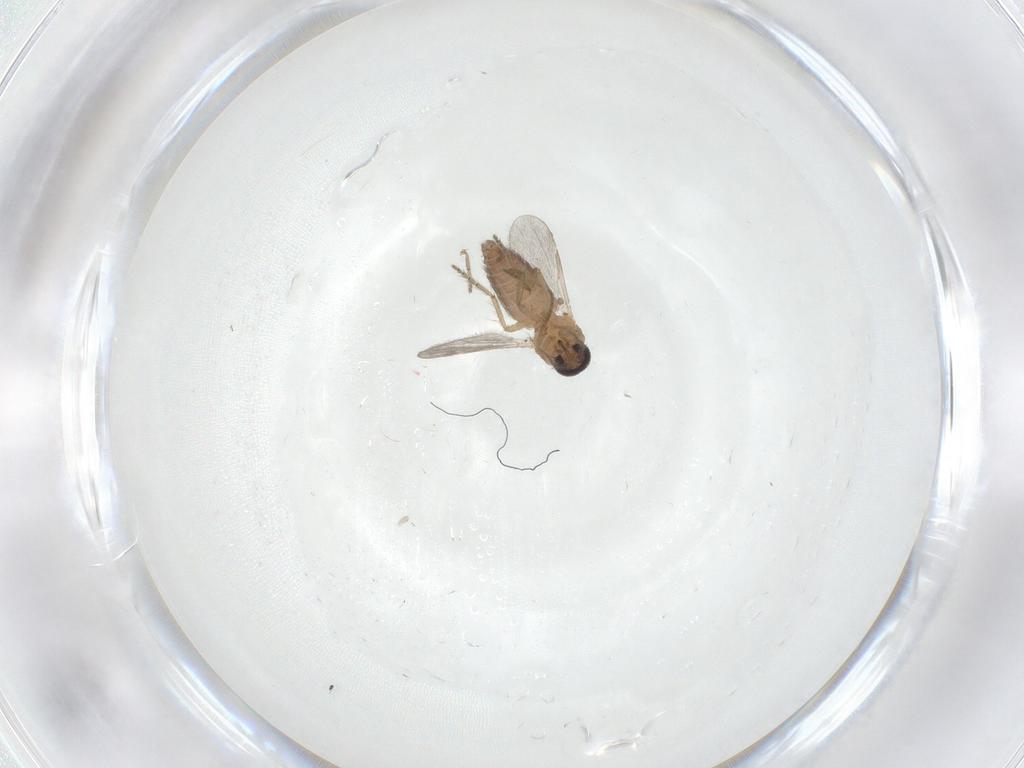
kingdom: Animalia
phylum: Arthropoda
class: Insecta
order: Diptera
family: Ceratopogonidae
